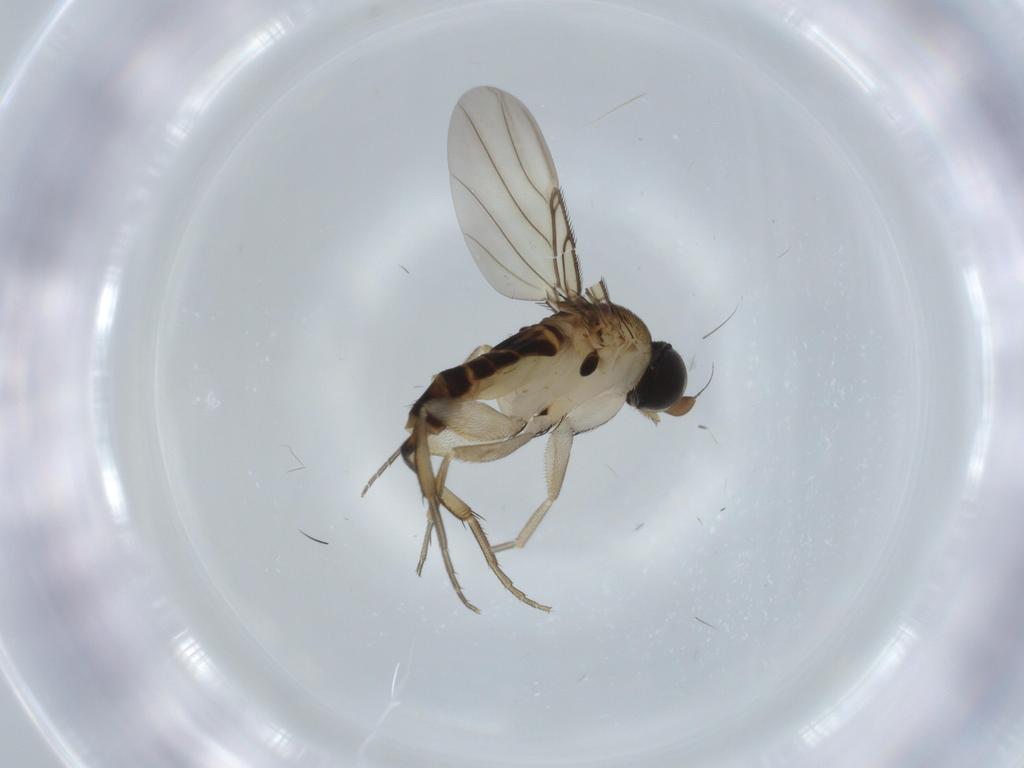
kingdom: Animalia
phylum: Arthropoda
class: Insecta
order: Diptera
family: Phoridae
